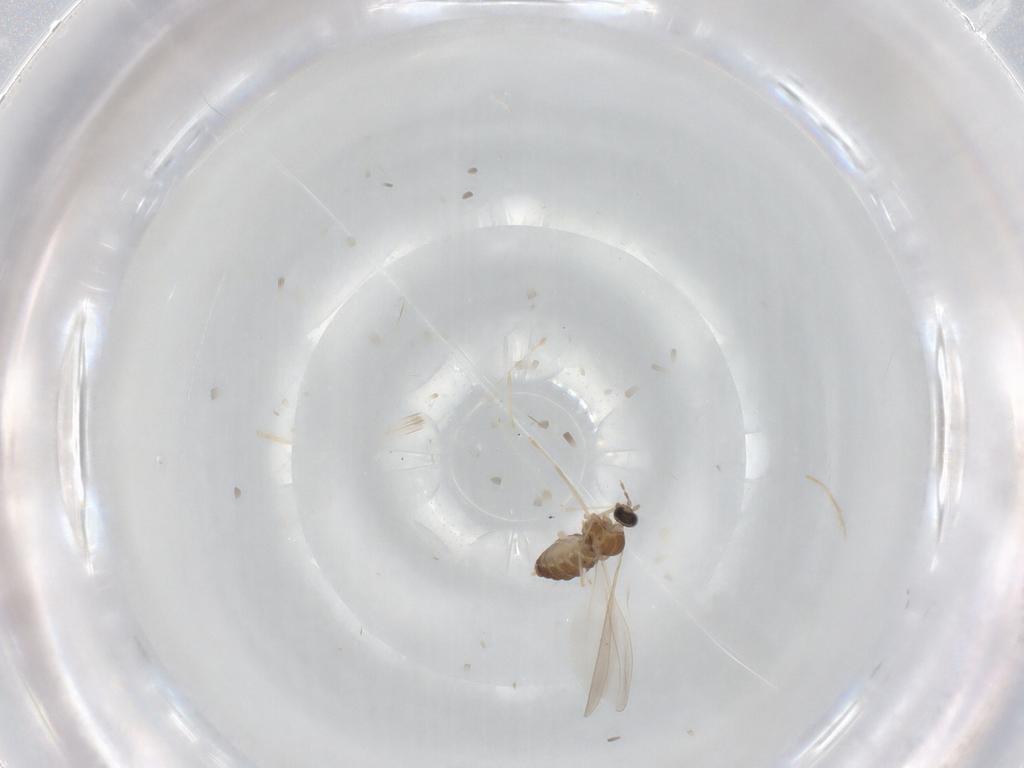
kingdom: Animalia
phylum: Arthropoda
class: Insecta
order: Diptera
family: Cecidomyiidae
